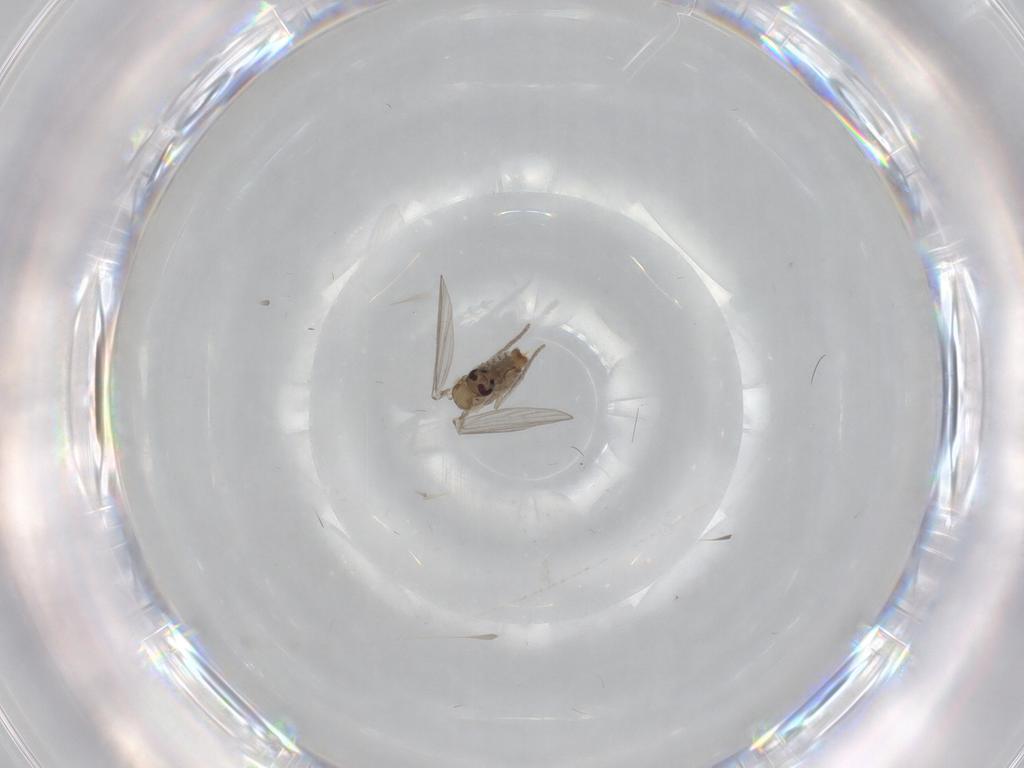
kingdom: Animalia
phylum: Arthropoda
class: Insecta
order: Diptera
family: Psychodidae
